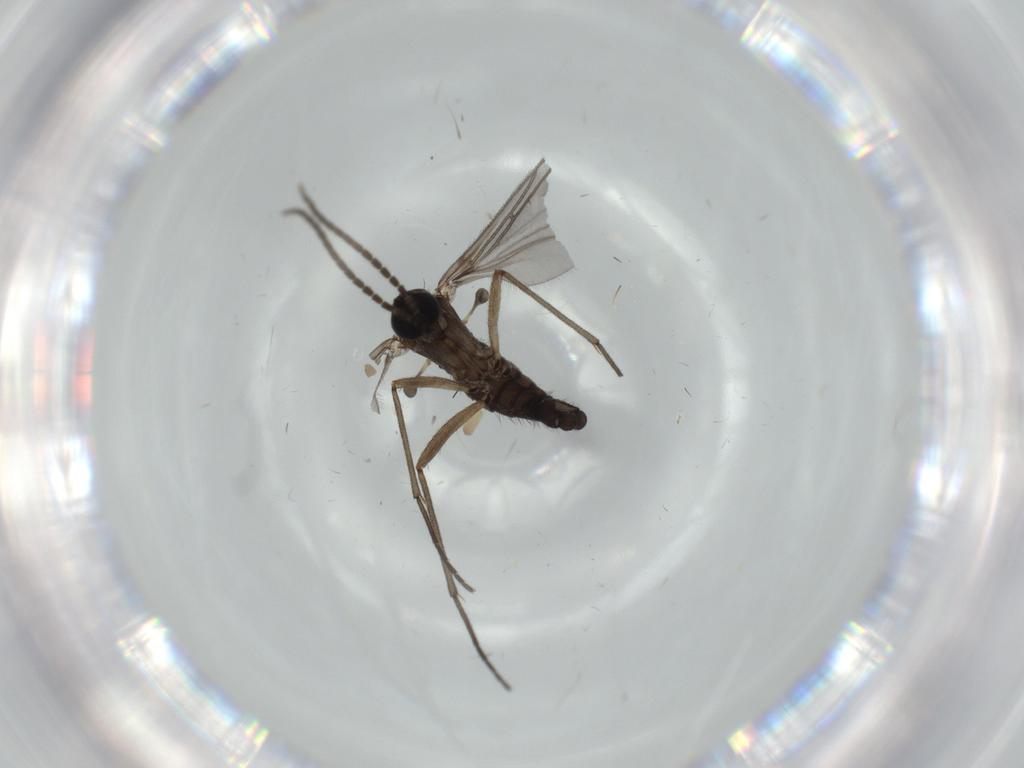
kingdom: Animalia
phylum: Arthropoda
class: Insecta
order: Diptera
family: Sciaridae
